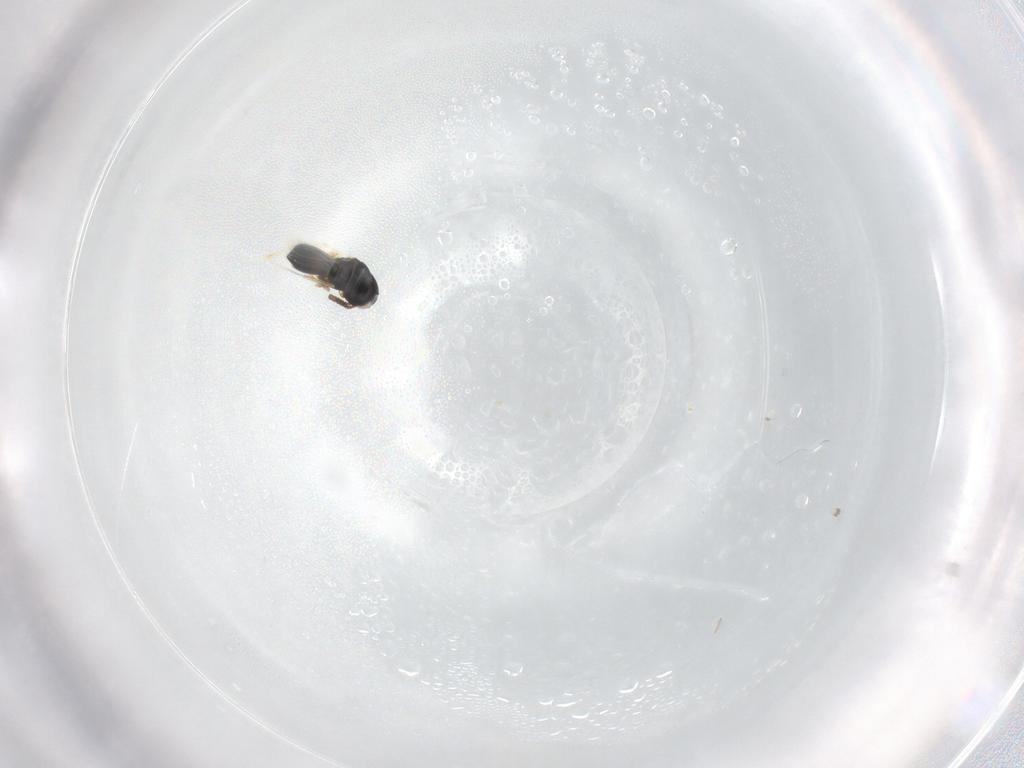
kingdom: Animalia
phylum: Arthropoda
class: Insecta
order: Hymenoptera
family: Scelionidae
